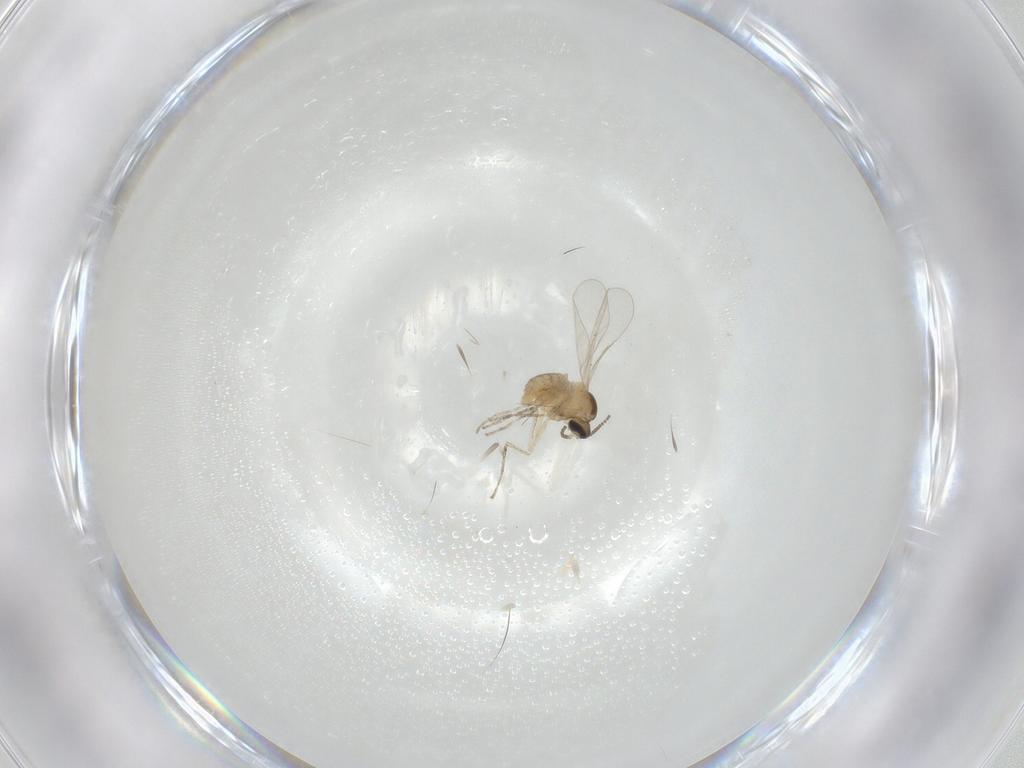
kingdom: Animalia
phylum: Arthropoda
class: Insecta
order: Diptera
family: Cecidomyiidae
